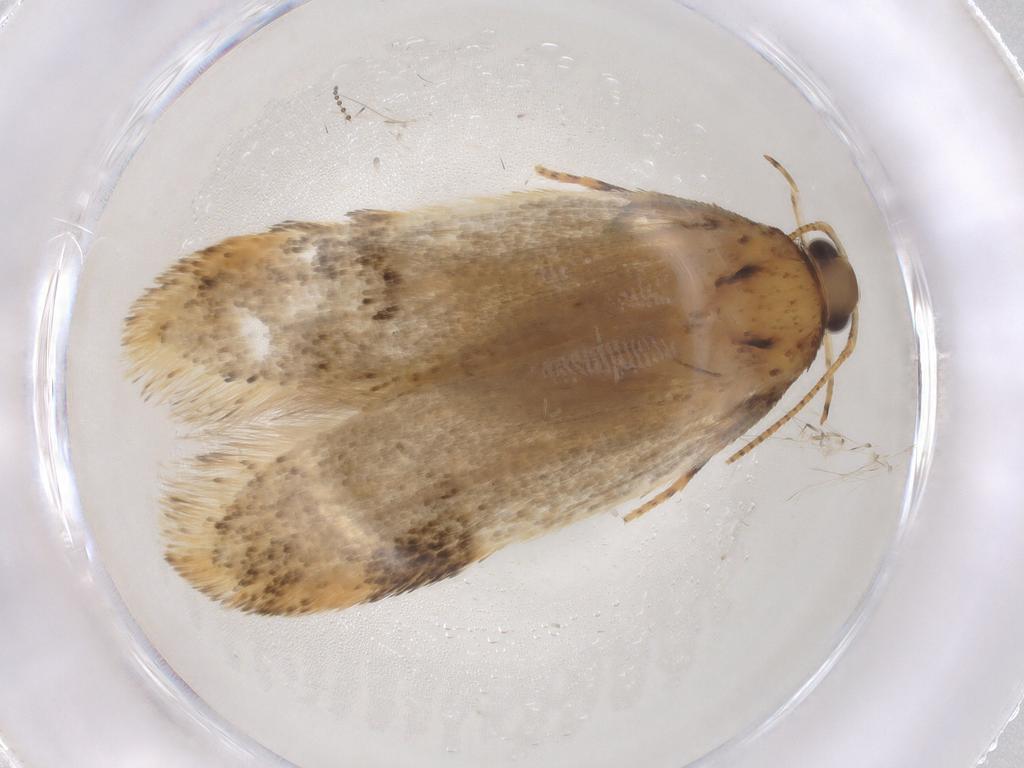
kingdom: Animalia
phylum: Arthropoda
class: Insecta
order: Lepidoptera
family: Gelechiidae
